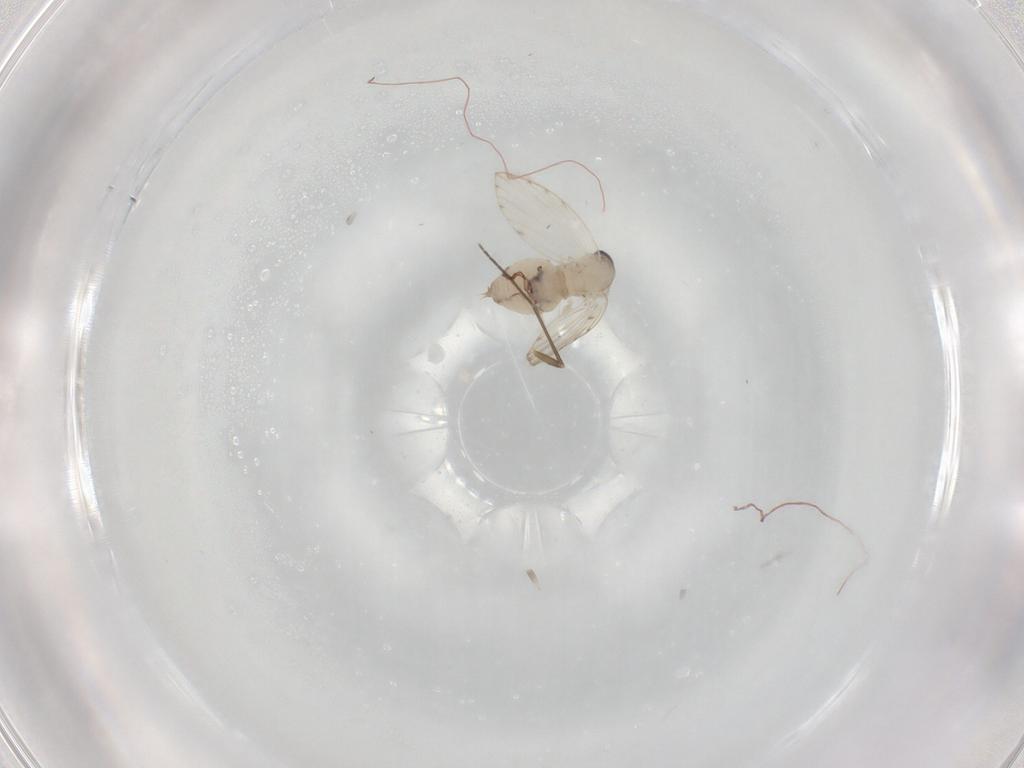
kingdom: Animalia
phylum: Arthropoda
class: Insecta
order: Diptera
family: Psychodidae
